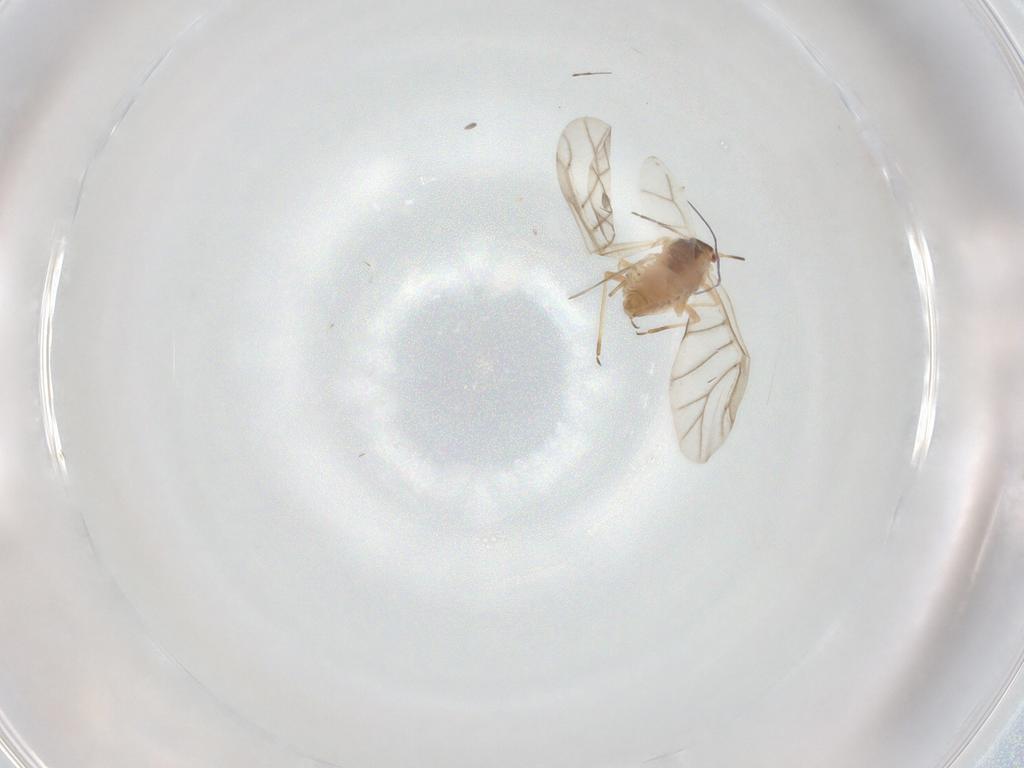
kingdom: Animalia
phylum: Arthropoda
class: Insecta
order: Hemiptera
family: Aphididae
